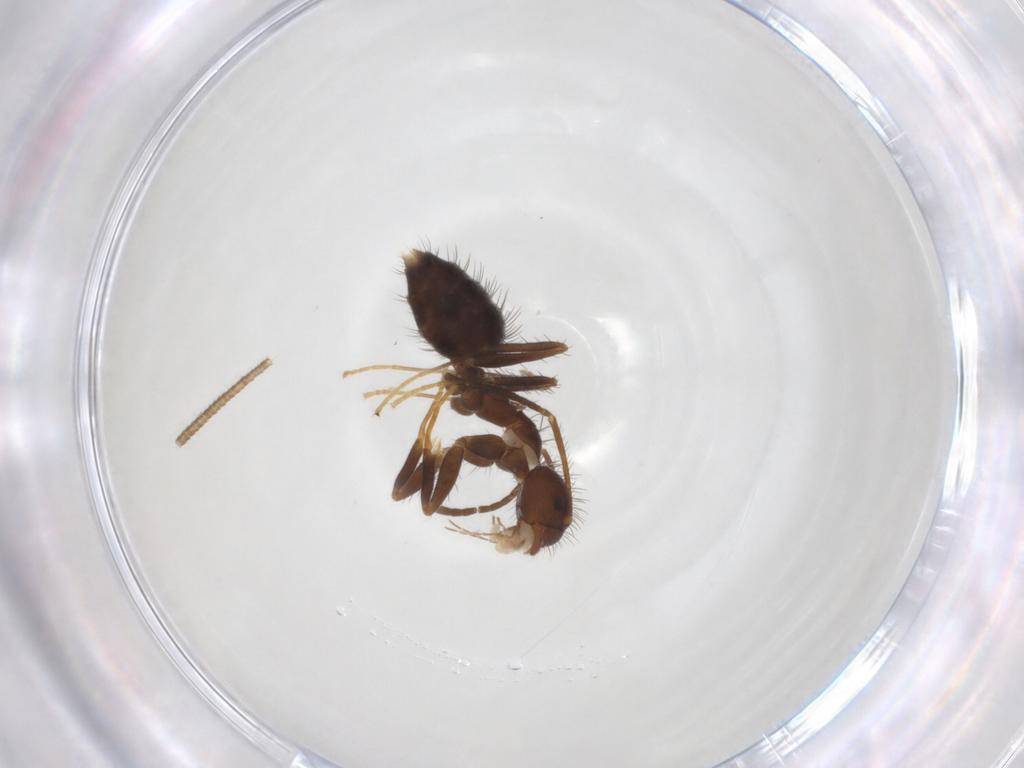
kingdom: Animalia
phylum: Arthropoda
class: Insecta
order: Hymenoptera
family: Formicidae
